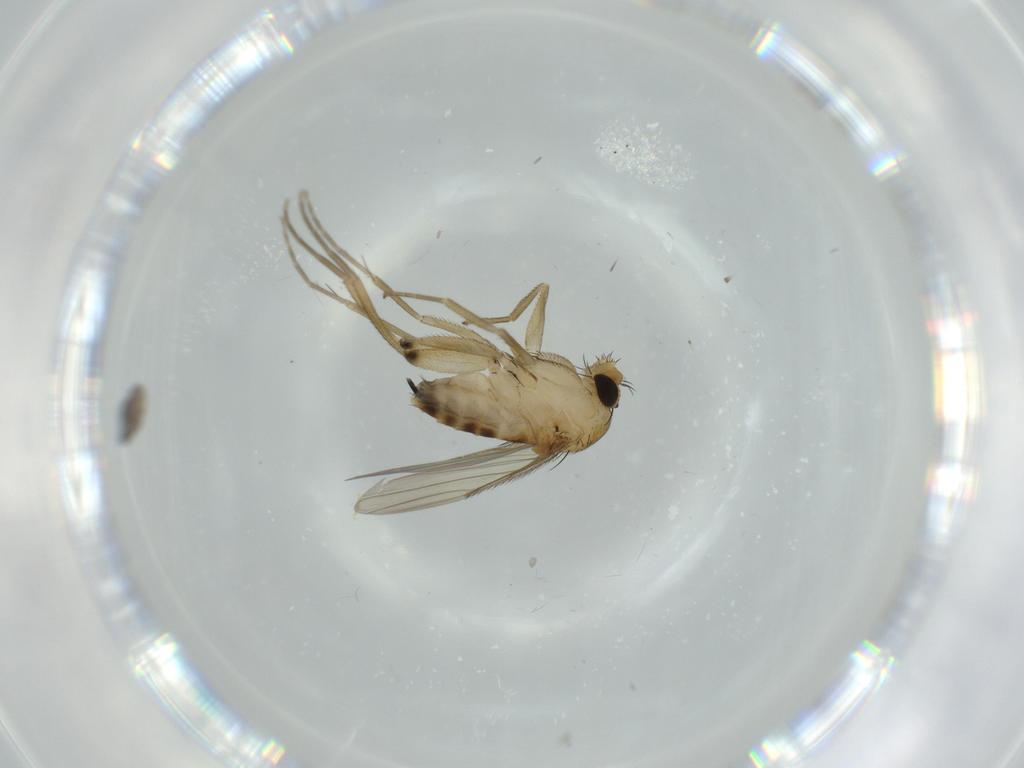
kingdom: Animalia
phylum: Arthropoda
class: Insecta
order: Diptera
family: Phoridae
